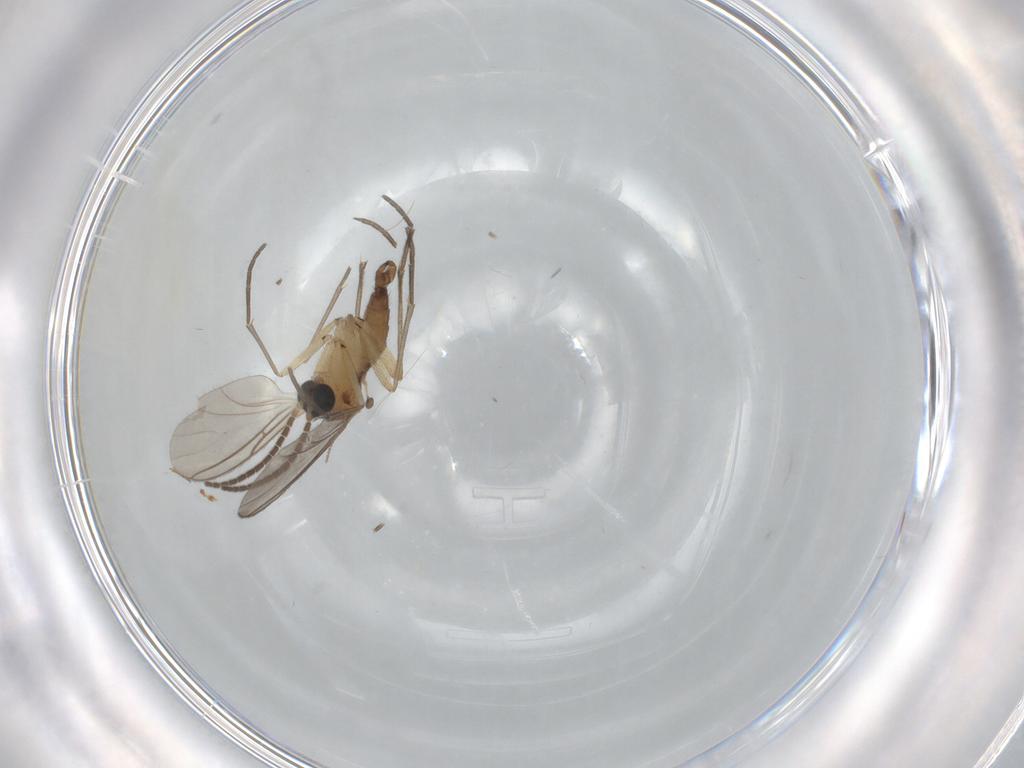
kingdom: Animalia
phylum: Arthropoda
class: Insecta
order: Diptera
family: Sciaridae
